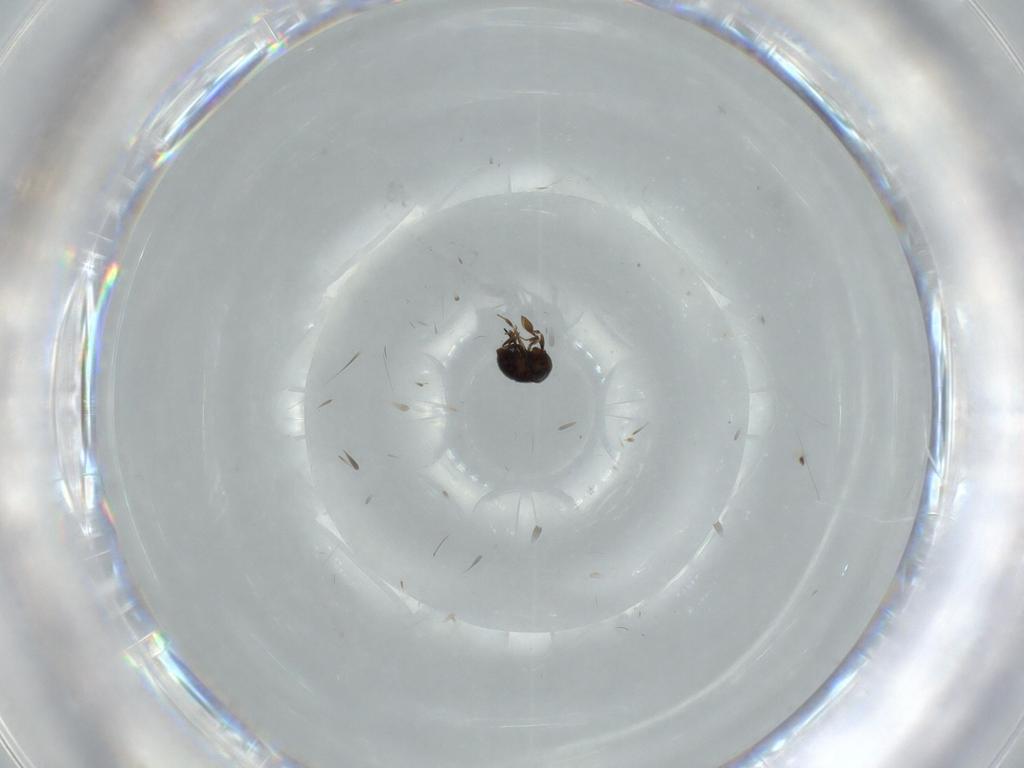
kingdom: Animalia
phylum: Arthropoda
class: Insecta
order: Hymenoptera
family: Scelionidae
